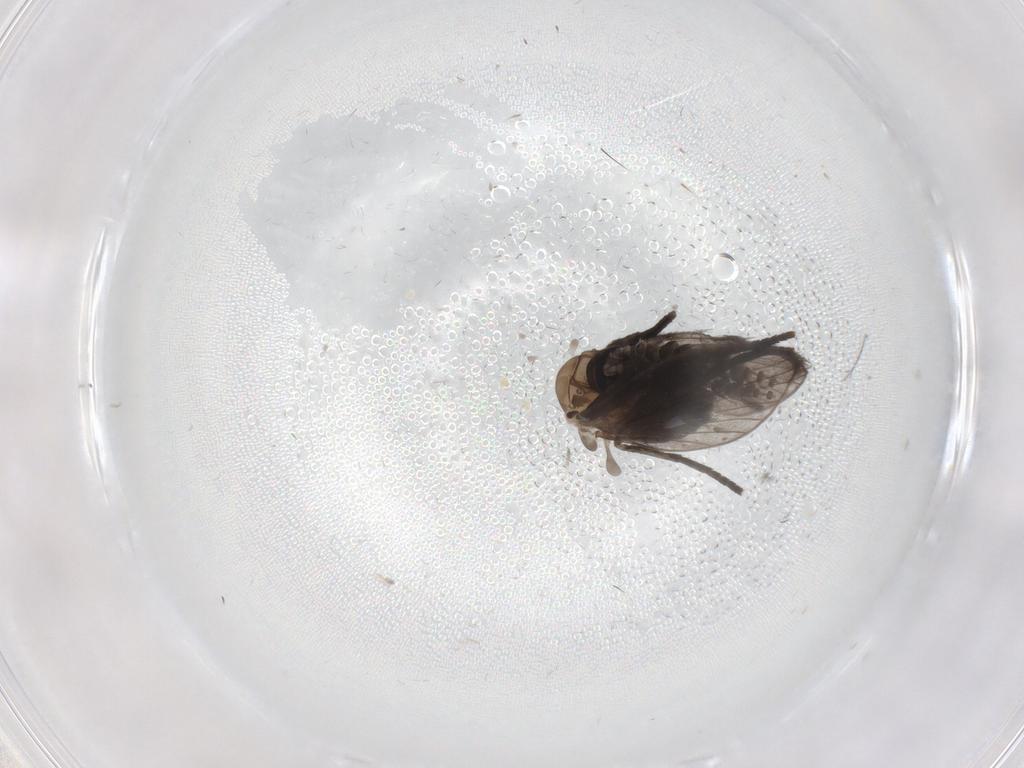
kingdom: Animalia
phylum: Arthropoda
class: Insecta
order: Diptera
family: Psychodidae
